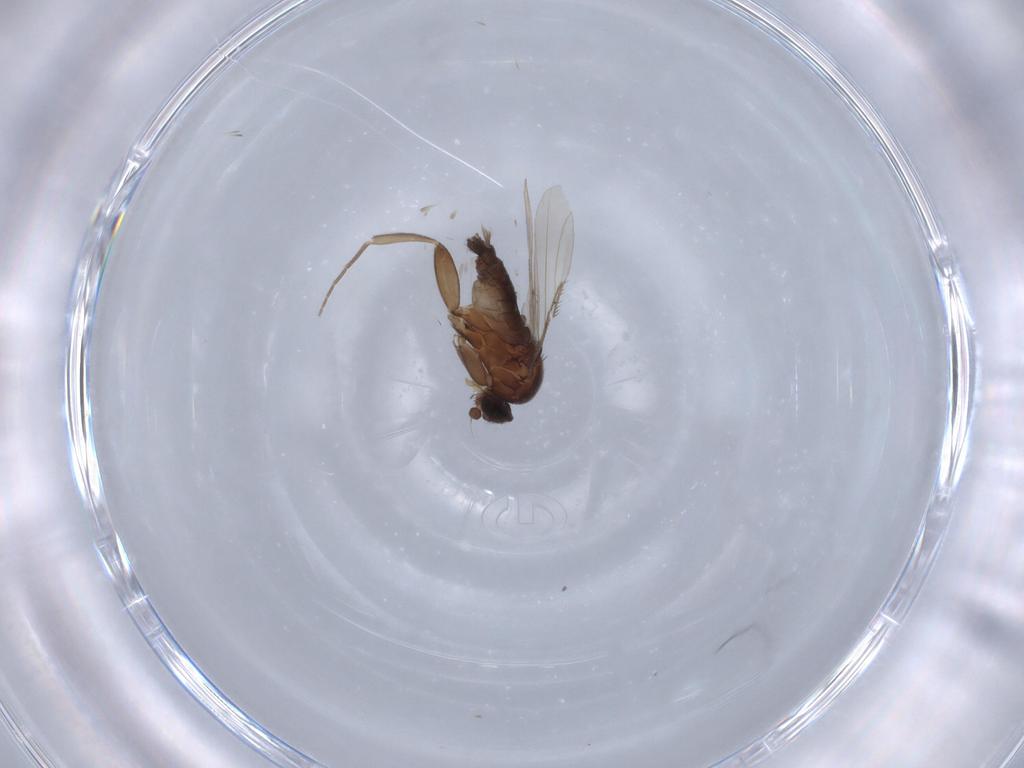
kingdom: Animalia
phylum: Arthropoda
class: Insecta
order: Diptera
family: Phoridae
